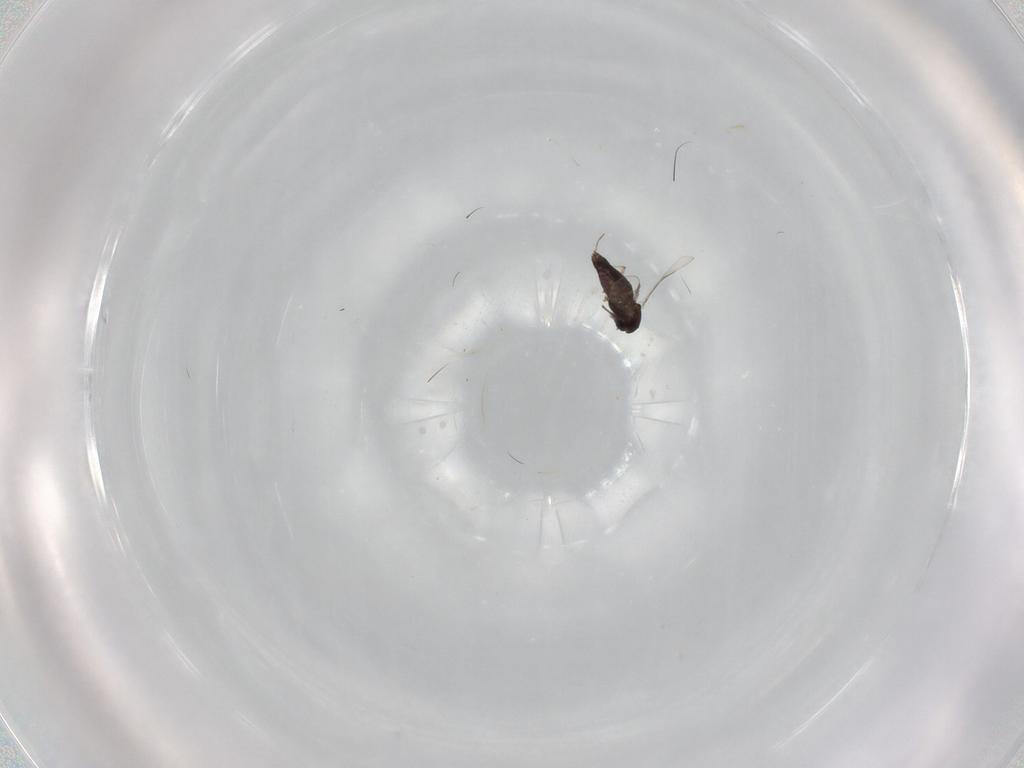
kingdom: Animalia
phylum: Arthropoda
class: Insecta
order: Diptera
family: Chironomidae
